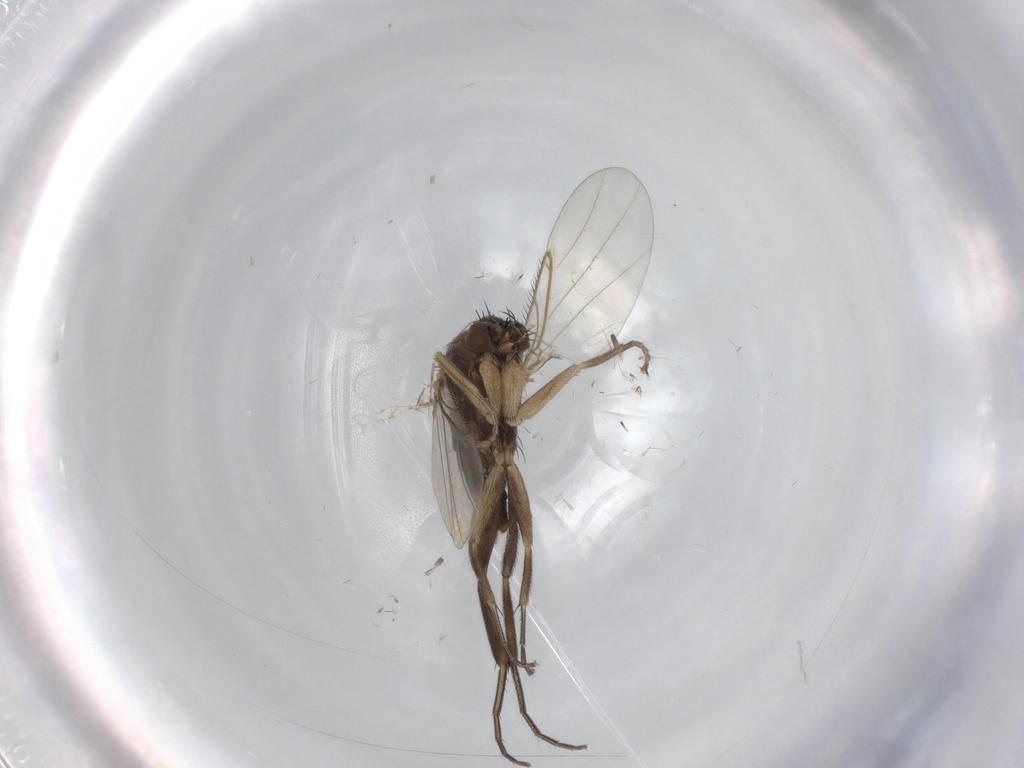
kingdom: Animalia
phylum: Arthropoda
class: Insecta
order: Diptera
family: Phoridae
